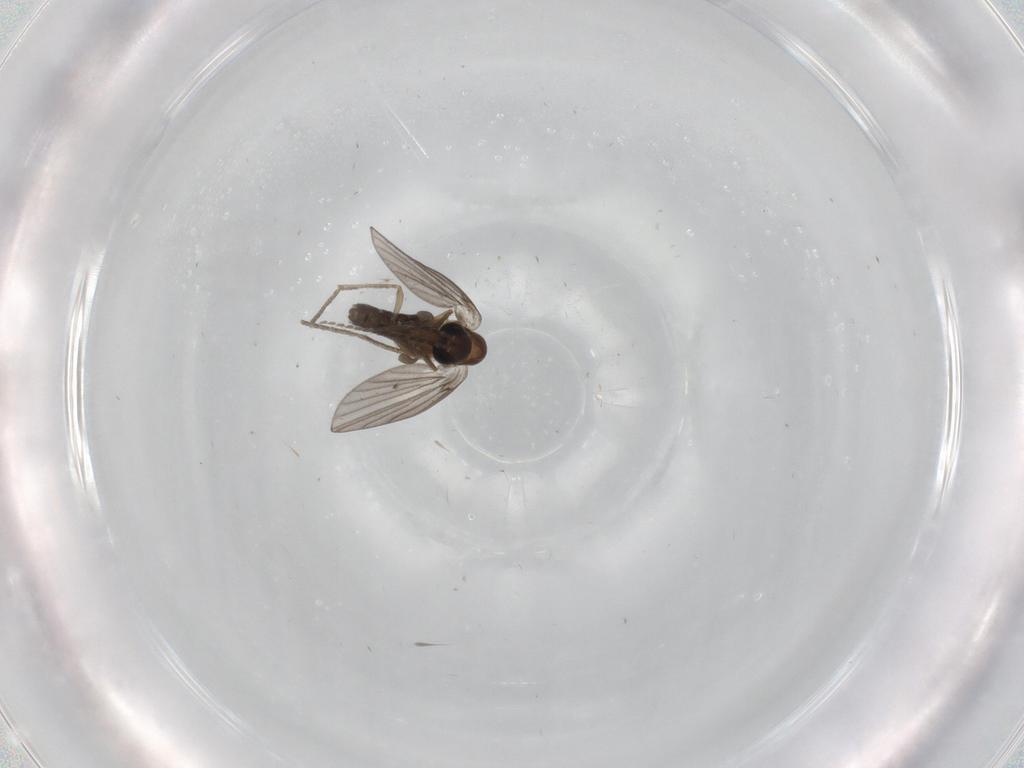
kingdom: Animalia
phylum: Arthropoda
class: Insecta
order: Diptera
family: Psychodidae
